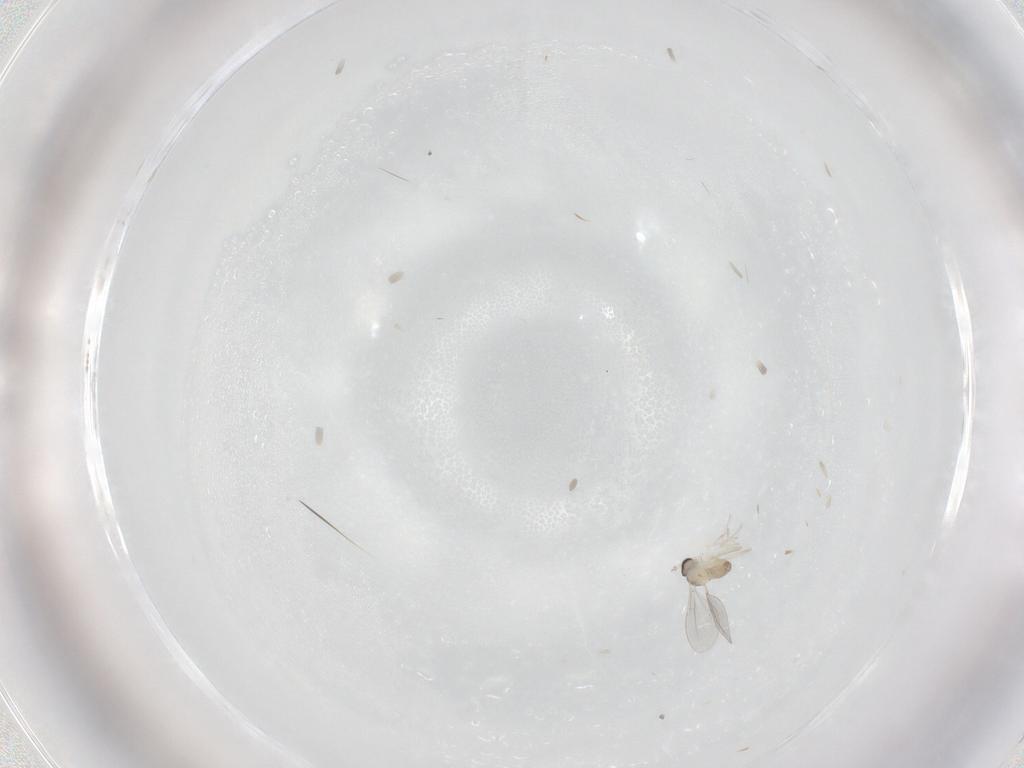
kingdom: Animalia
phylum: Arthropoda
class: Insecta
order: Diptera
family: Cecidomyiidae
